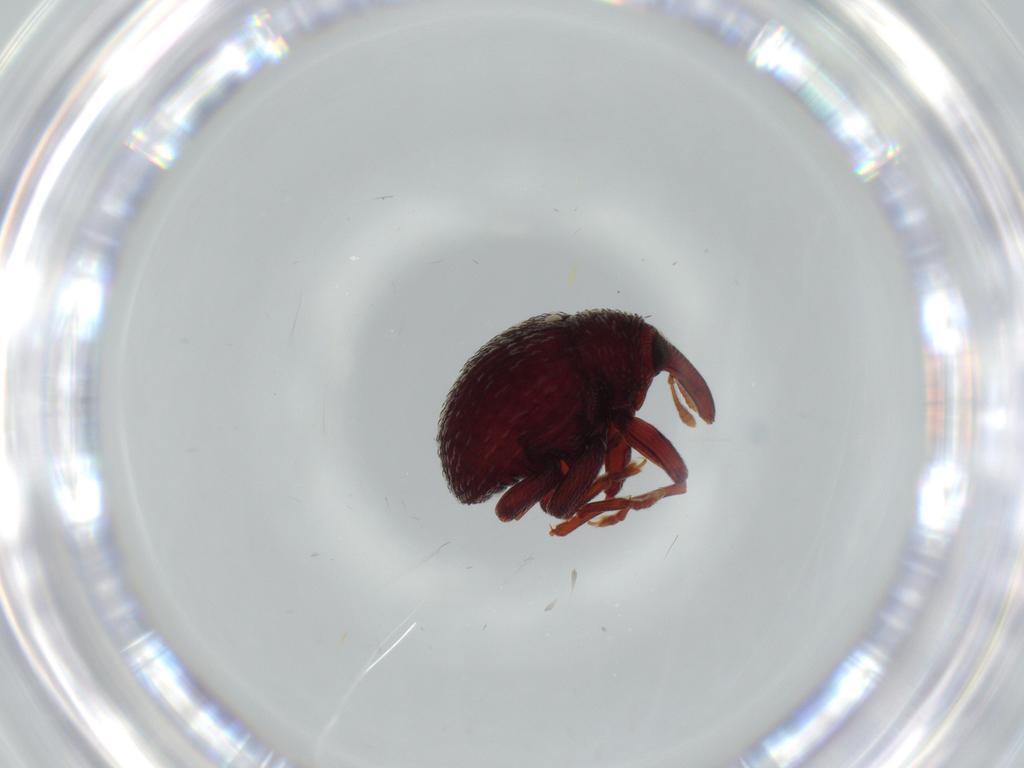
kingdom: Animalia
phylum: Arthropoda
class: Insecta
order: Coleoptera
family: Curculionidae
